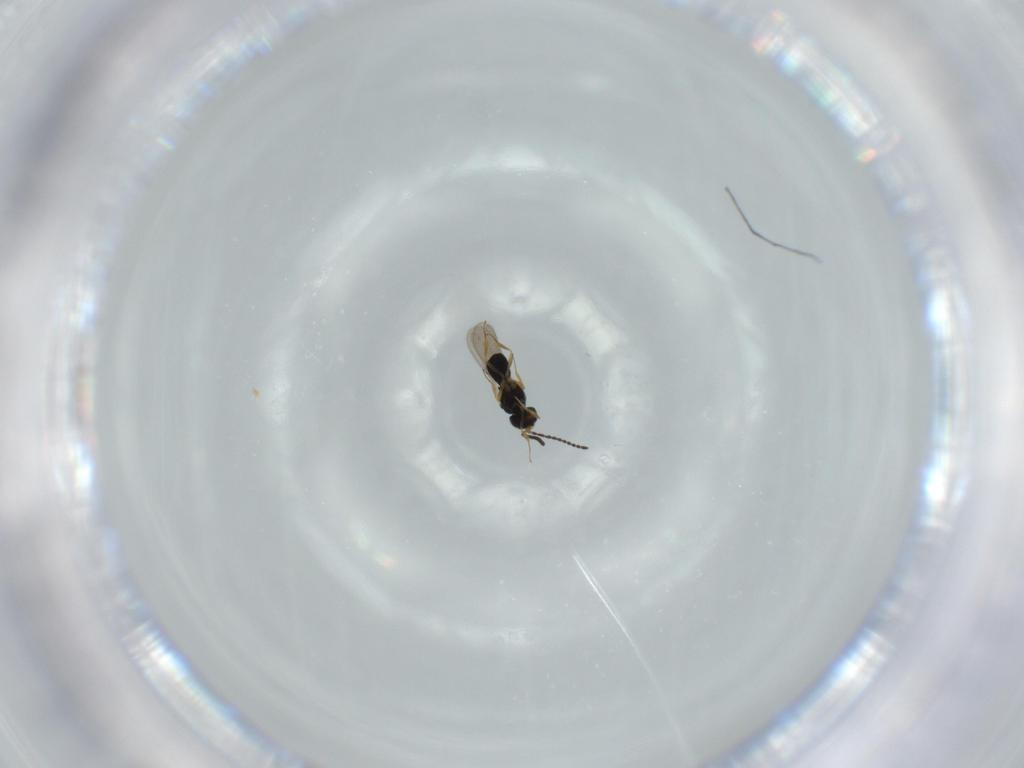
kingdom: Animalia
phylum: Arthropoda
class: Insecta
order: Hymenoptera
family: Scelionidae
